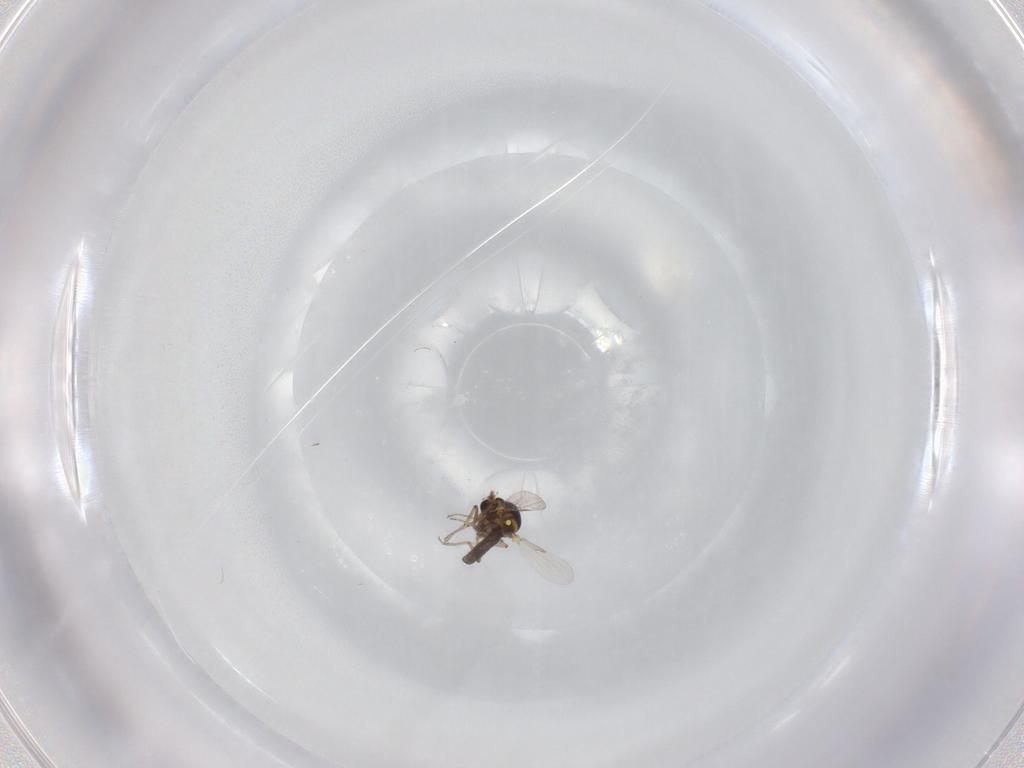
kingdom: Animalia
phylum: Arthropoda
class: Insecta
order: Diptera
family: Ceratopogonidae
